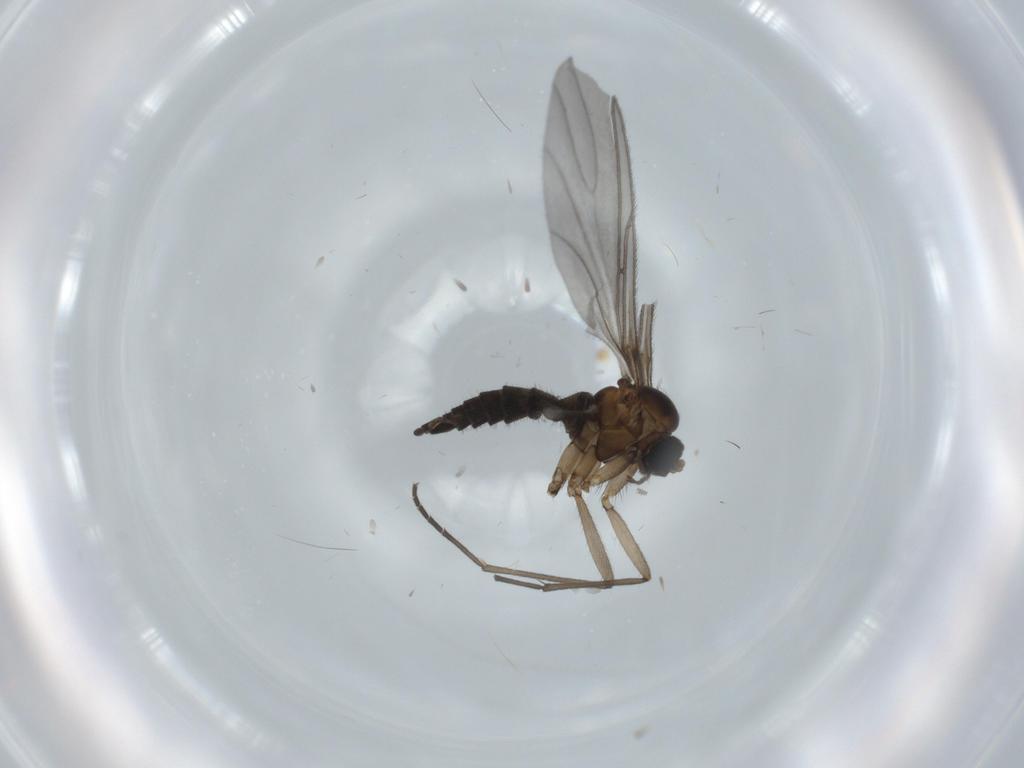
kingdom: Animalia
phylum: Arthropoda
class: Insecta
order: Diptera
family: Sciaridae
